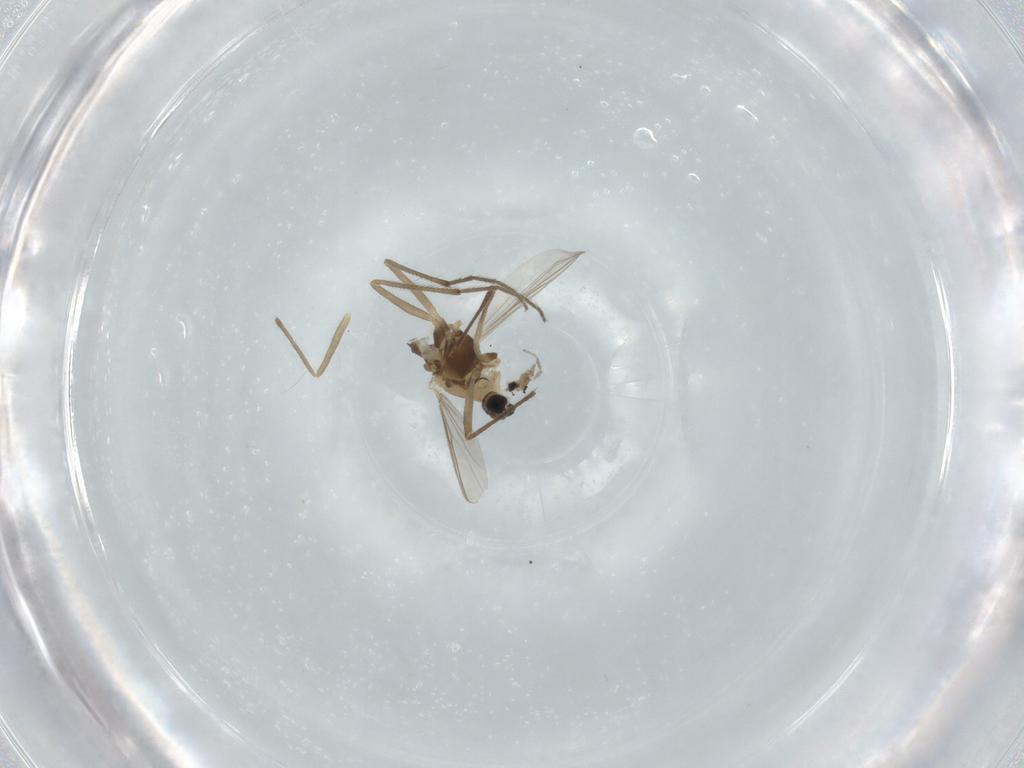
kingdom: Animalia
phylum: Arthropoda
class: Insecta
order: Diptera
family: Chironomidae
